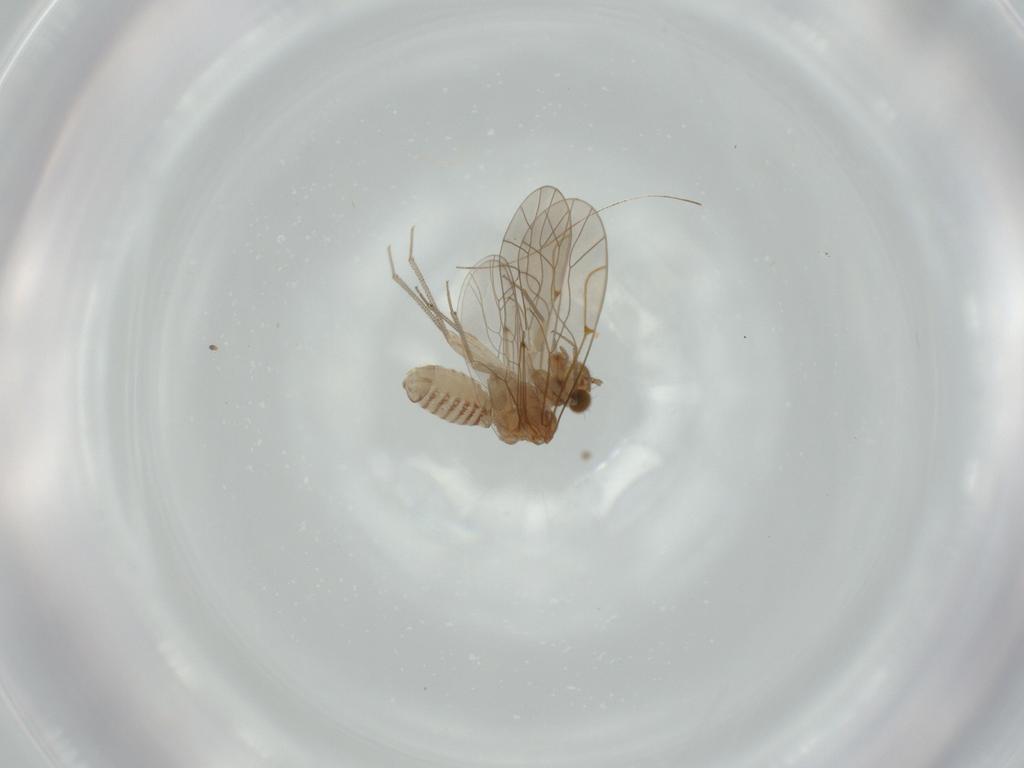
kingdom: Animalia
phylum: Arthropoda
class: Insecta
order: Psocodea
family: Lachesillidae
